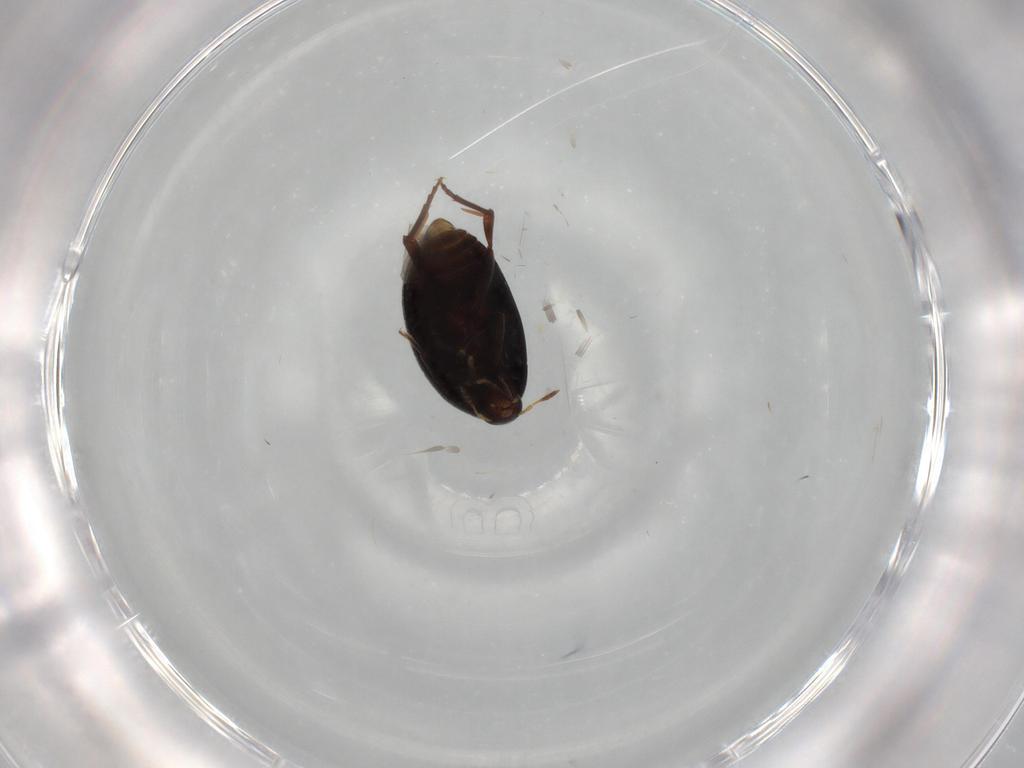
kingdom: Animalia
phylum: Arthropoda
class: Insecta
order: Coleoptera
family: Melandryidae
